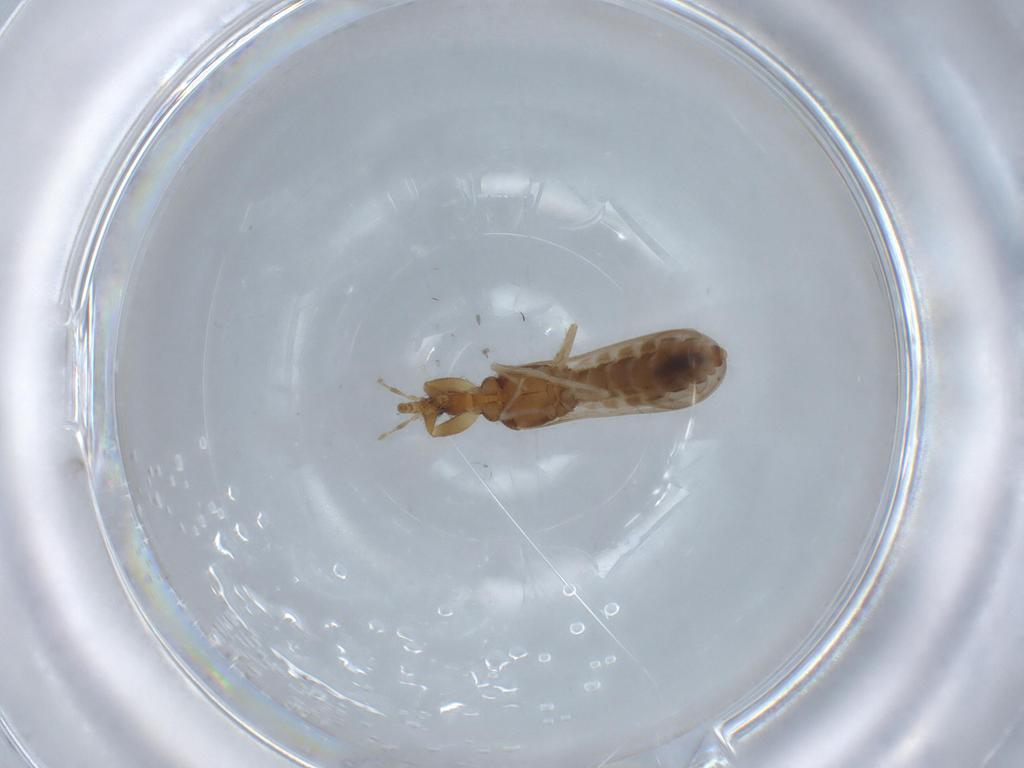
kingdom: Animalia
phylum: Arthropoda
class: Insecta
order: Hemiptera
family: Enicocephalidae
